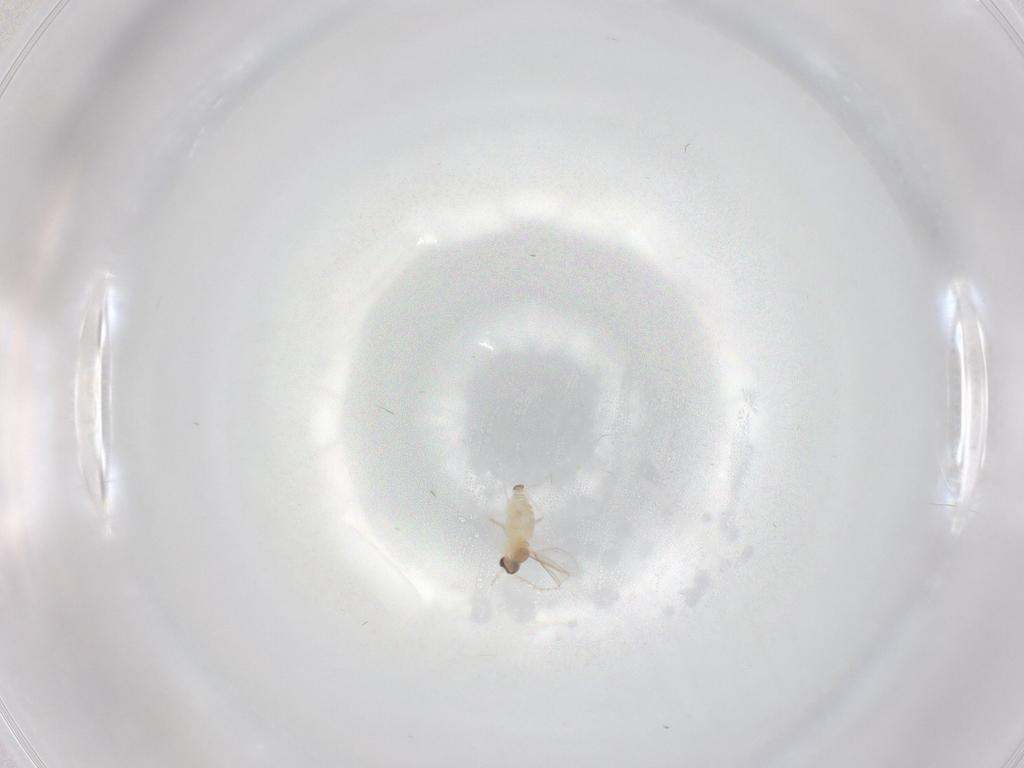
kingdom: Animalia
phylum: Arthropoda
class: Insecta
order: Diptera
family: Cecidomyiidae
